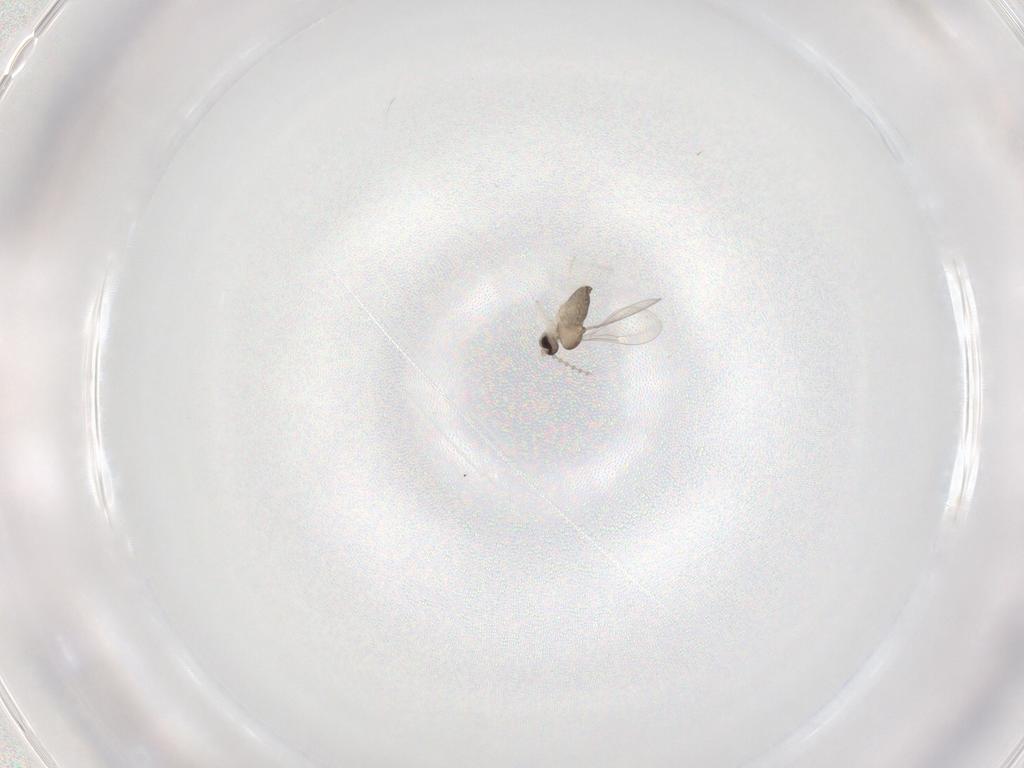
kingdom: Animalia
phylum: Arthropoda
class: Insecta
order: Diptera
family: Cecidomyiidae
